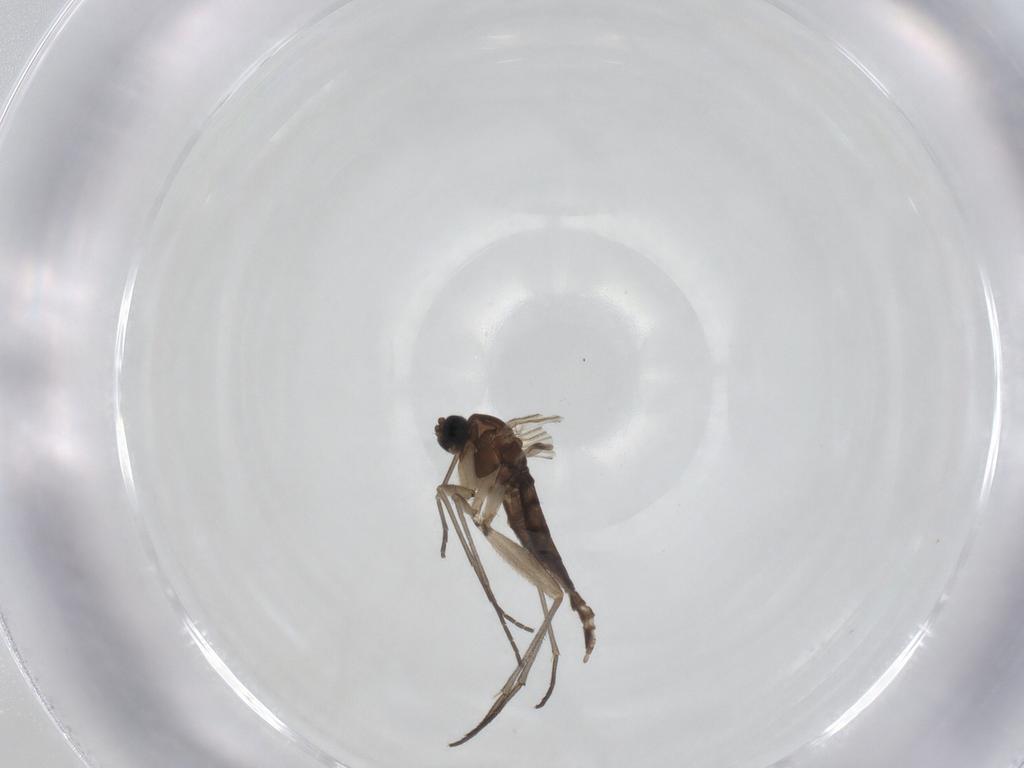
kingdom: Animalia
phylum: Arthropoda
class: Insecta
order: Diptera
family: Sciaridae
